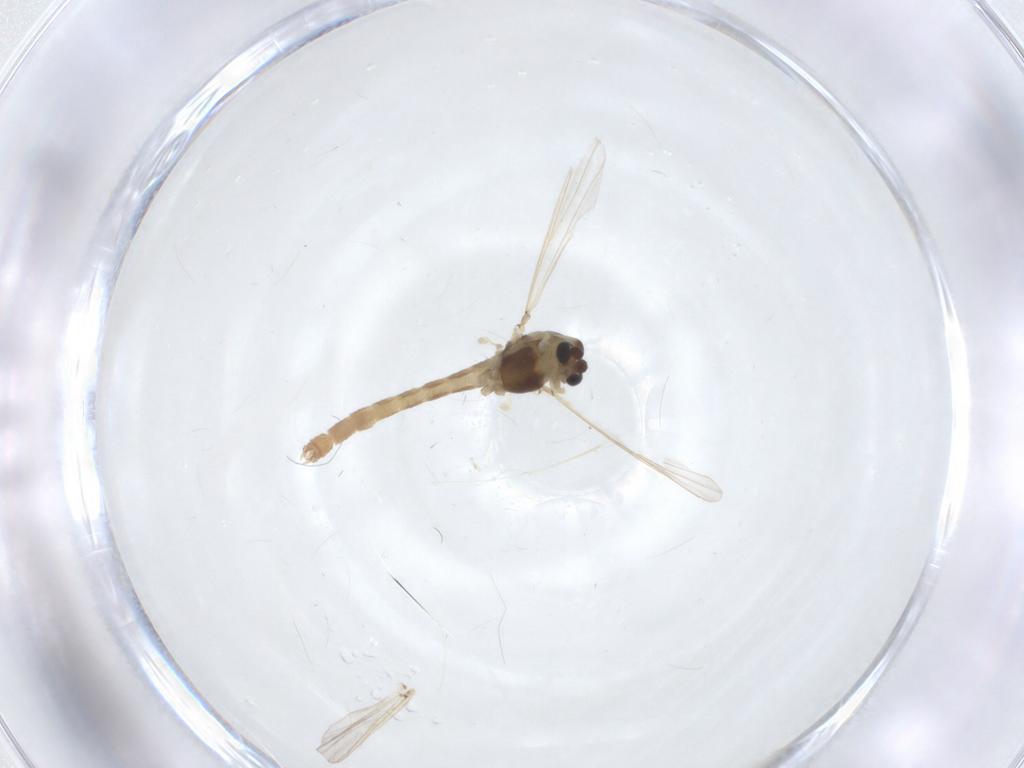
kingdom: Animalia
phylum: Arthropoda
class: Insecta
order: Diptera
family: Chironomidae
